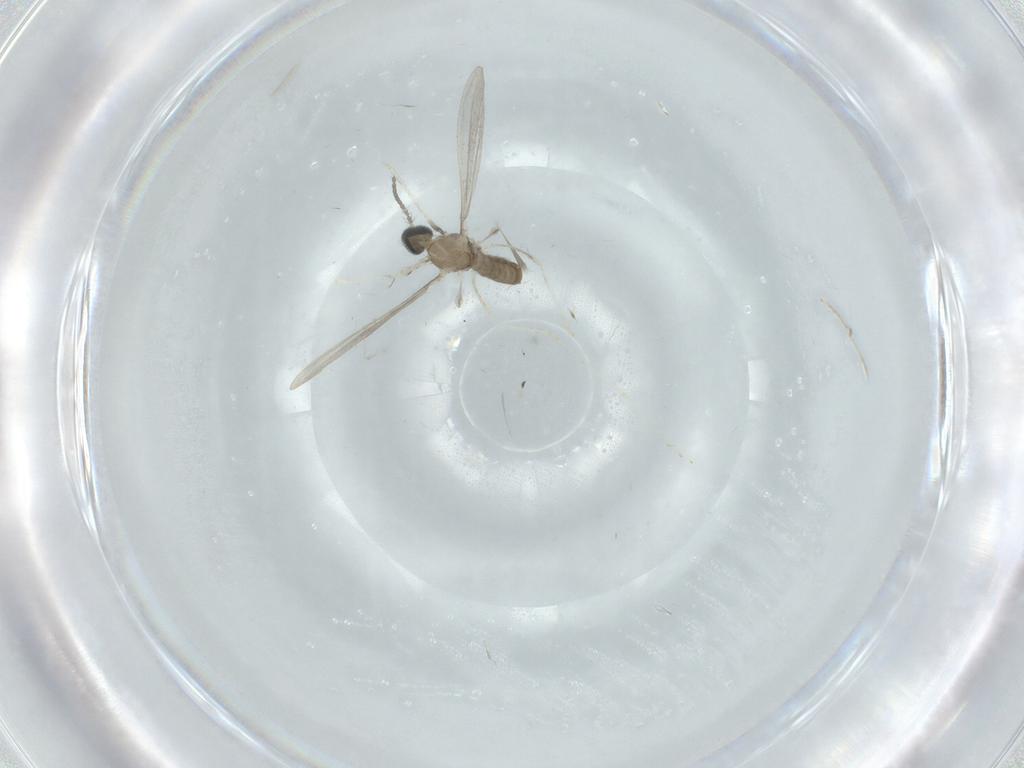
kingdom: Animalia
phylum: Arthropoda
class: Insecta
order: Diptera
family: Cecidomyiidae
